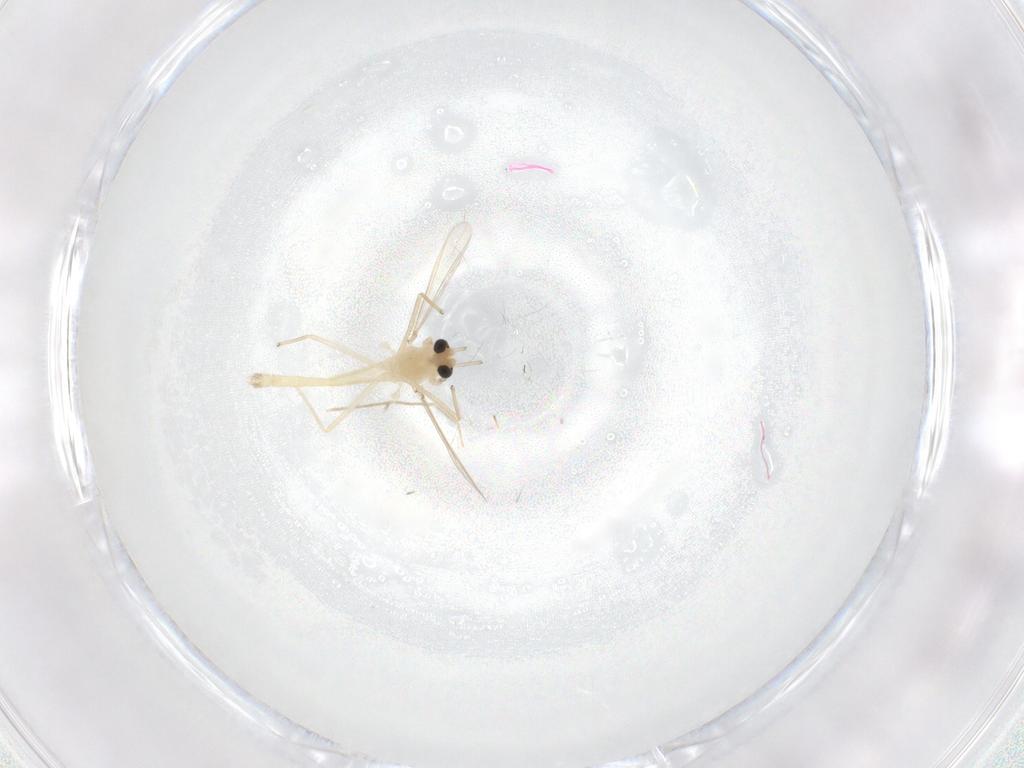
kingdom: Animalia
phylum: Arthropoda
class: Insecta
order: Diptera
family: Chironomidae
